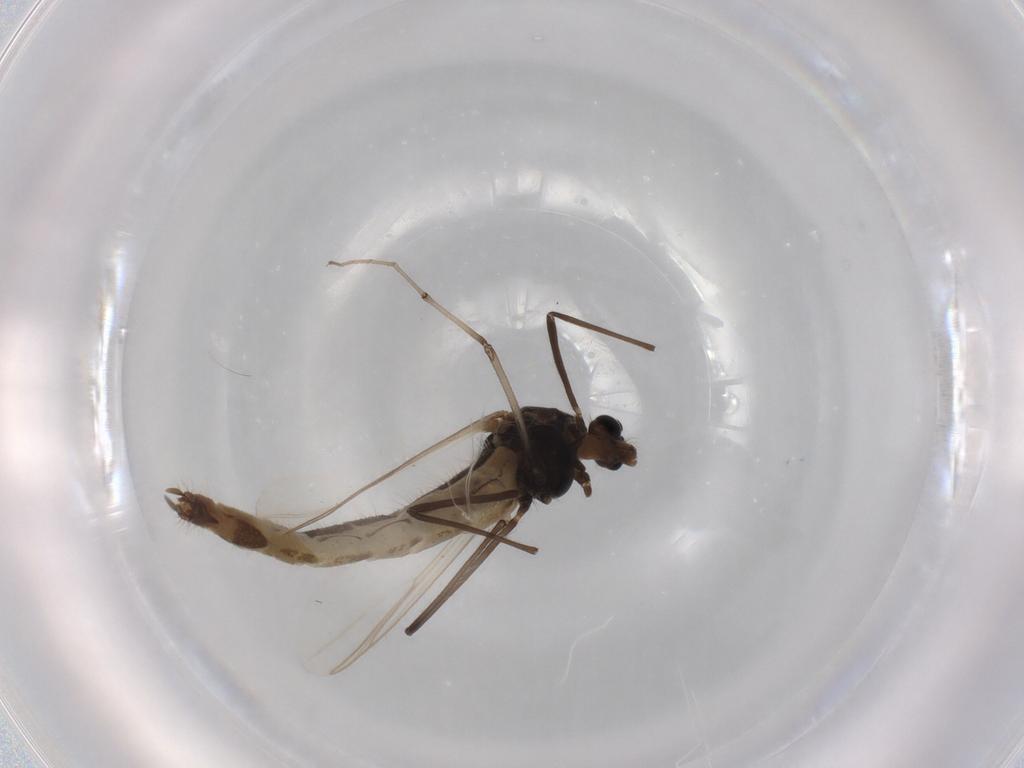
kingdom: Animalia
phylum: Arthropoda
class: Insecta
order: Diptera
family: Chironomidae
